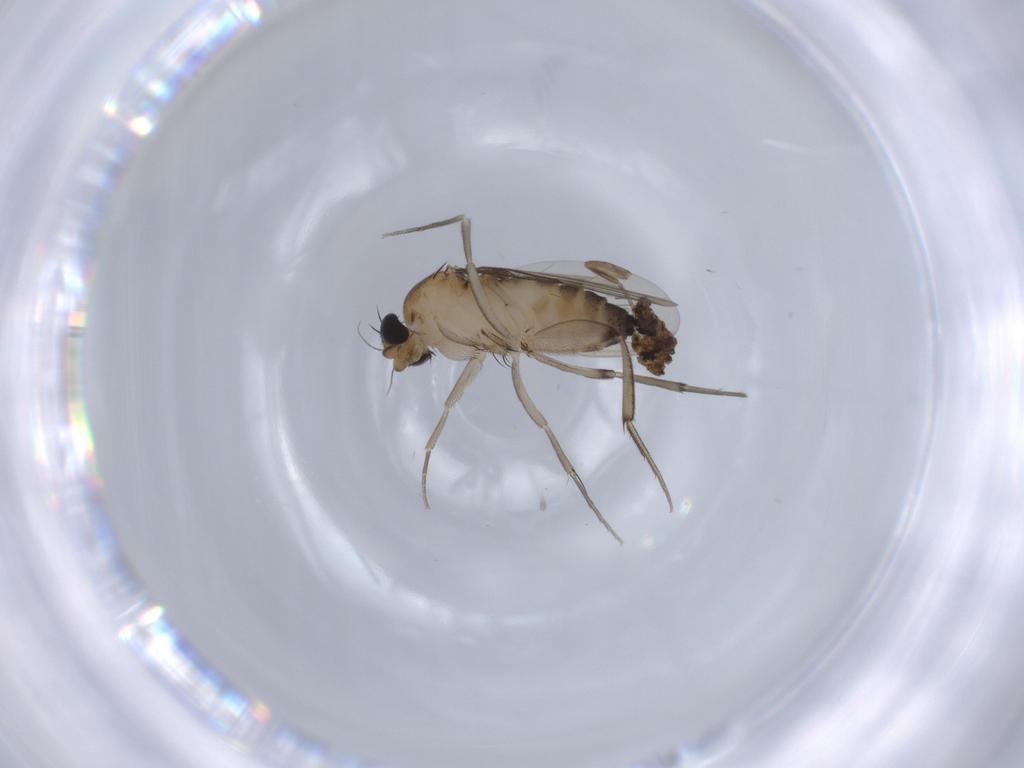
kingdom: Animalia
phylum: Arthropoda
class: Insecta
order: Diptera
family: Phoridae
